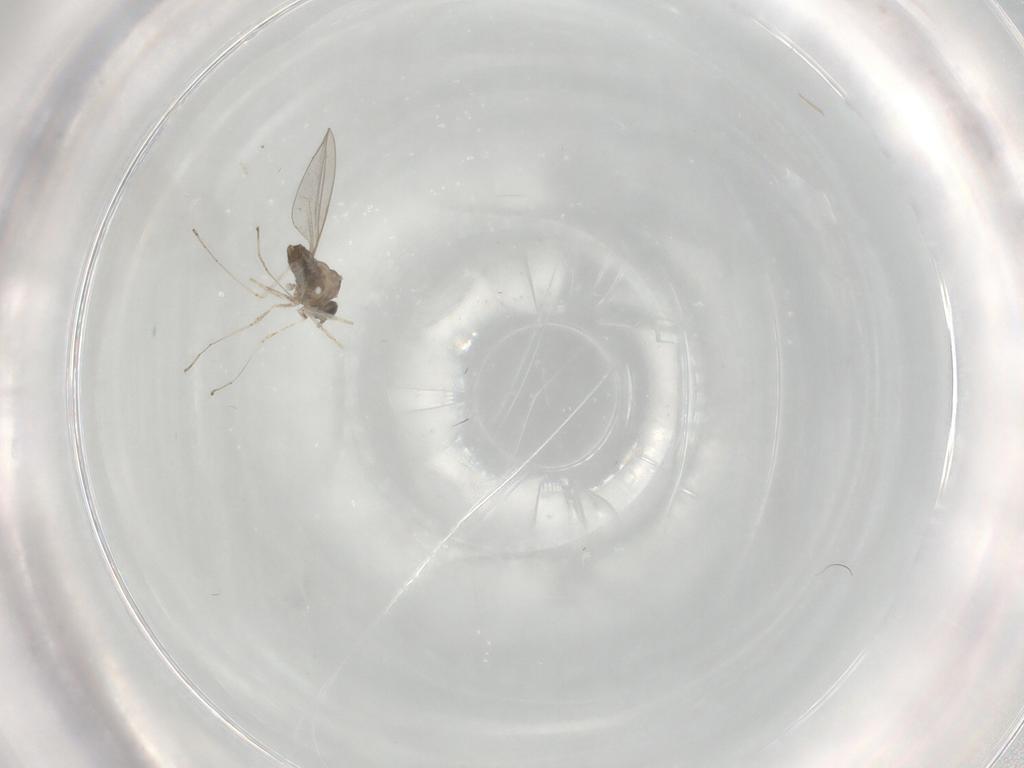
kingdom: Animalia
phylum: Arthropoda
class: Insecta
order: Diptera
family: Cecidomyiidae
